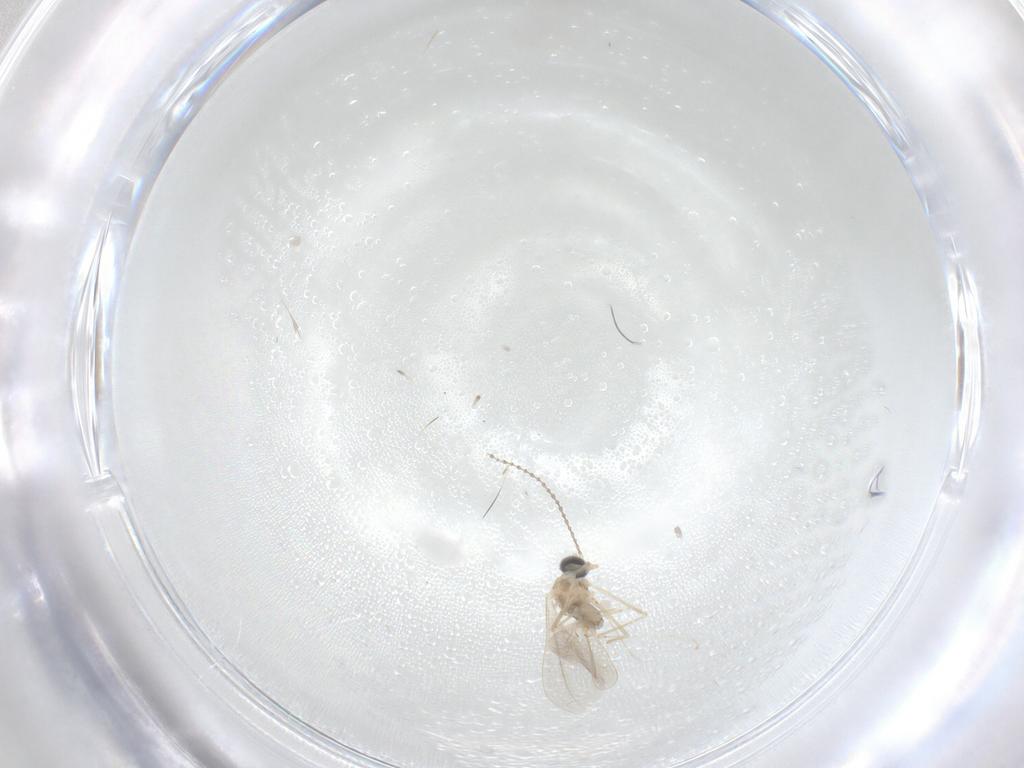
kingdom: Animalia
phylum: Arthropoda
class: Insecta
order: Diptera
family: Cecidomyiidae
